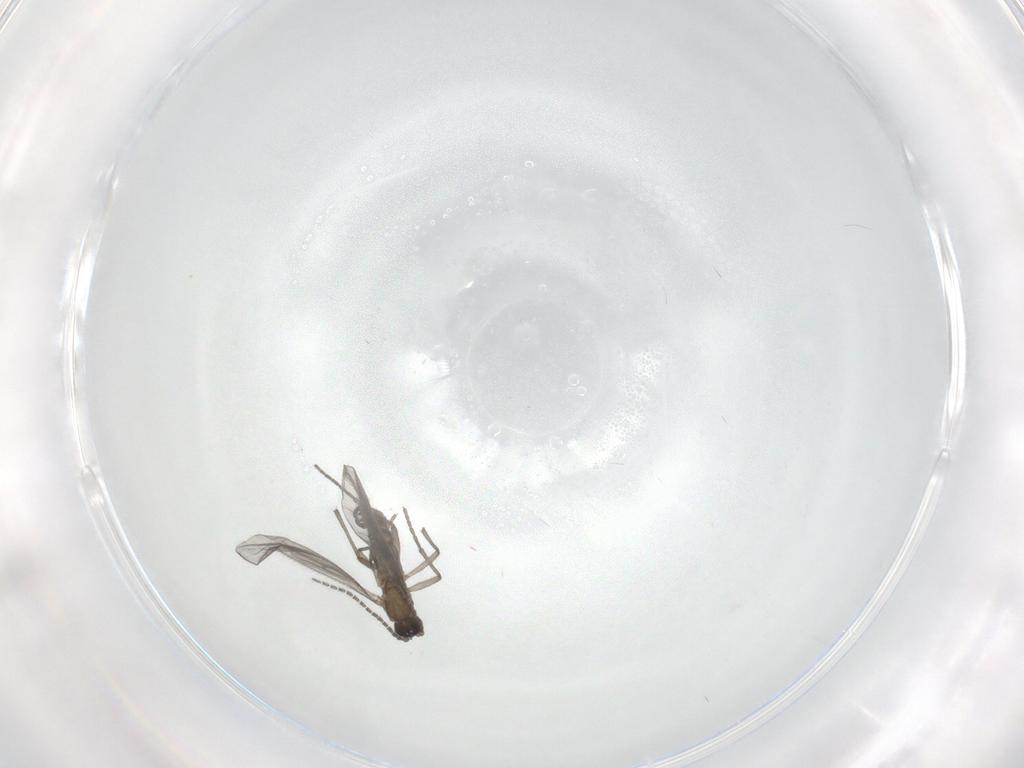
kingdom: Animalia
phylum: Arthropoda
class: Insecta
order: Diptera
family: Sciaridae
